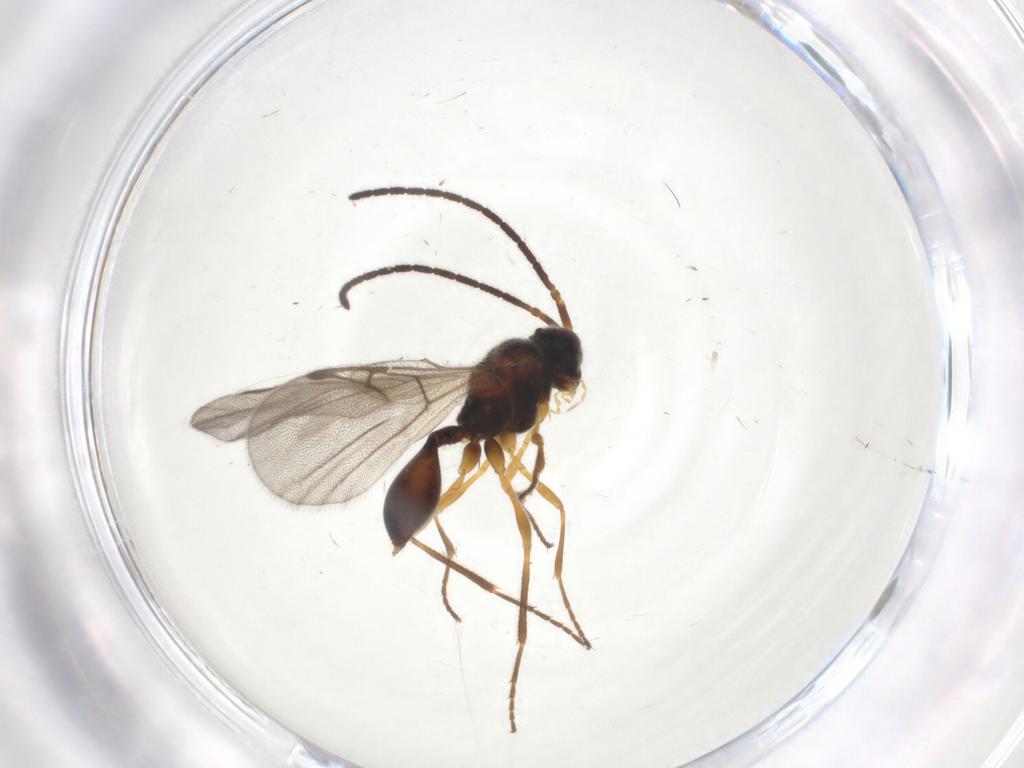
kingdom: Animalia
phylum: Arthropoda
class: Insecta
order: Hymenoptera
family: Diapriidae
